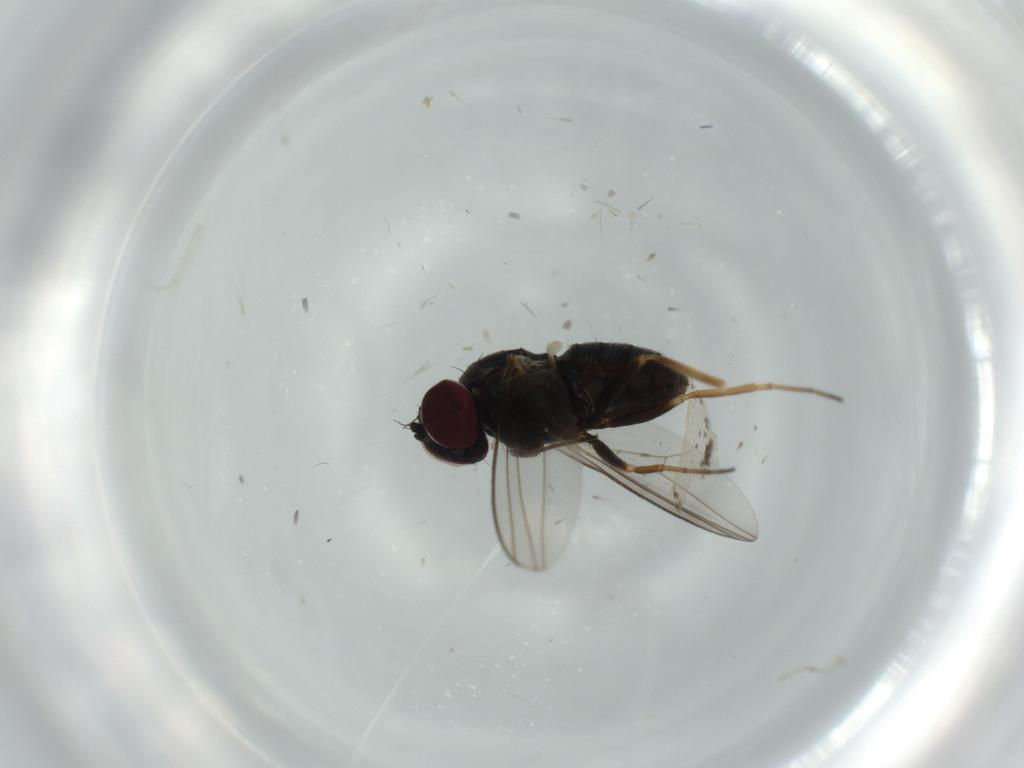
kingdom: Animalia
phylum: Arthropoda
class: Insecta
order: Diptera
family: Dolichopodidae
